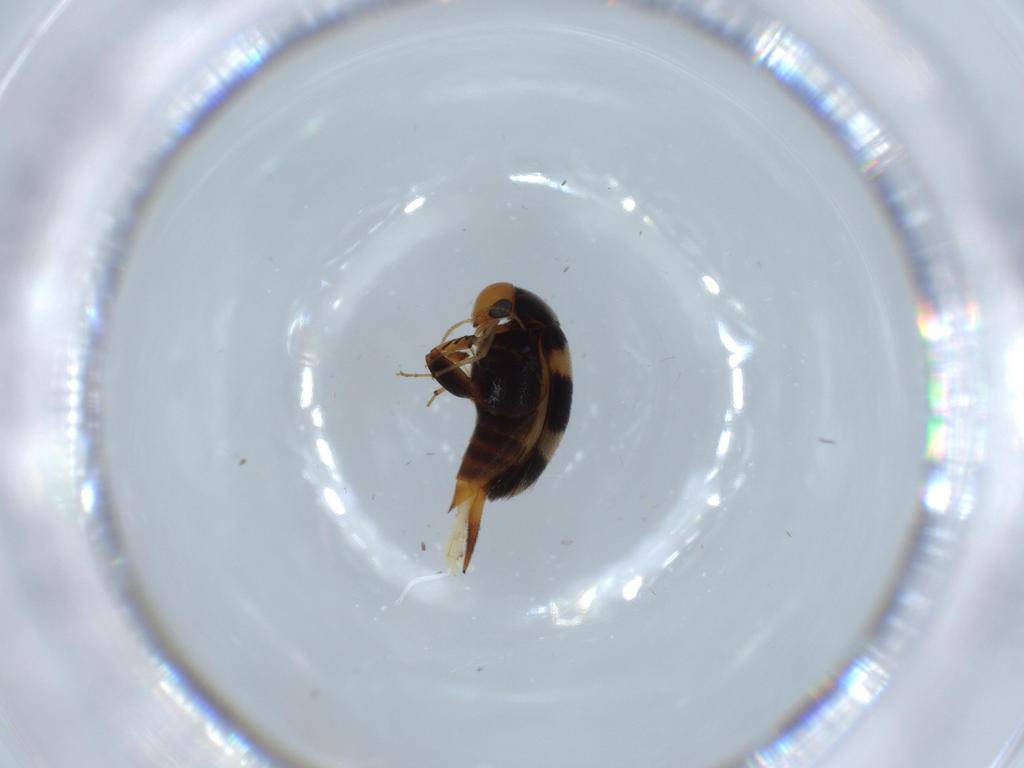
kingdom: Animalia
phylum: Arthropoda
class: Insecta
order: Coleoptera
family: Mordellidae
